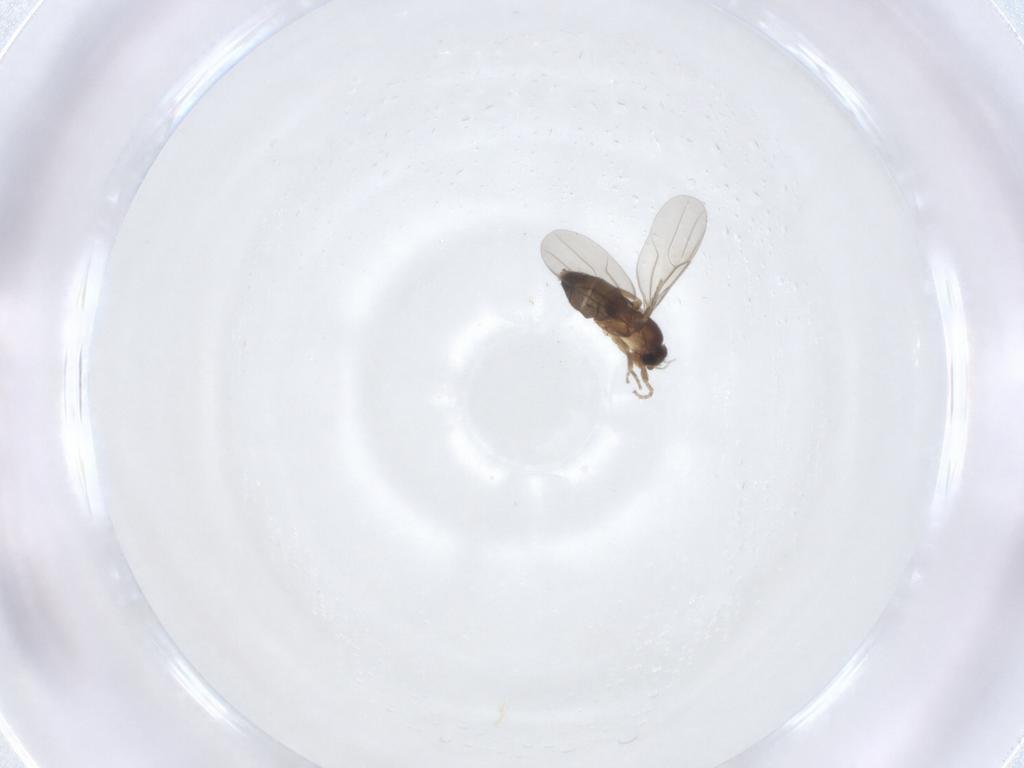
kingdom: Animalia
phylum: Arthropoda
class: Insecta
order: Diptera
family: Phoridae
